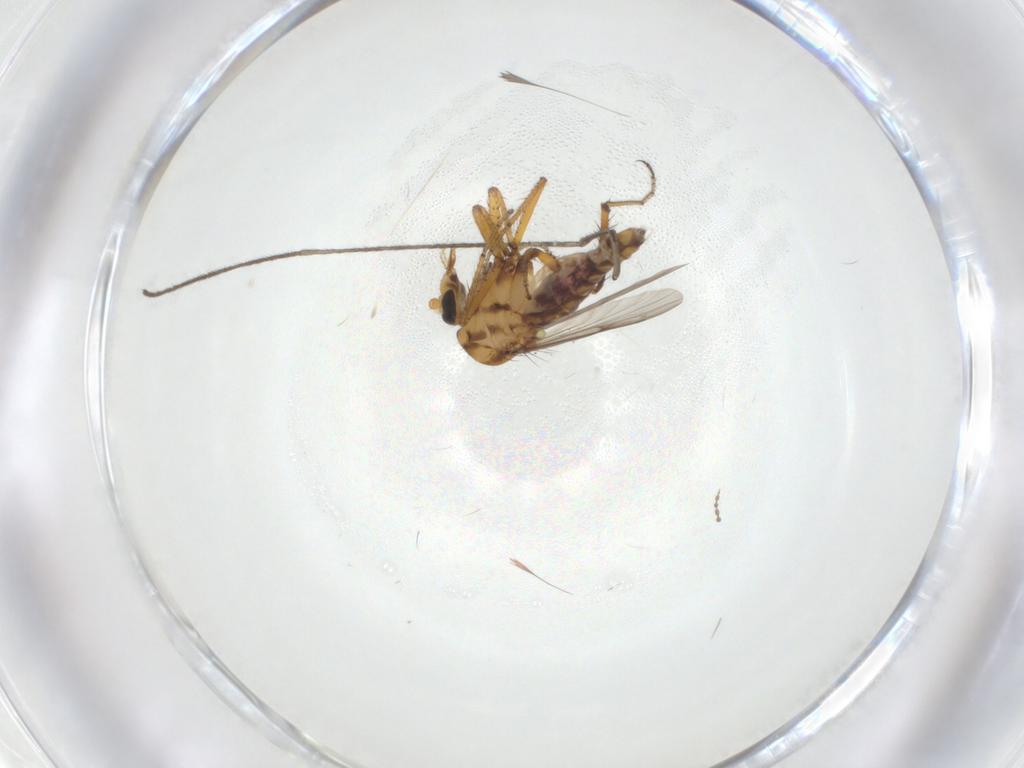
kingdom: Animalia
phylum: Arthropoda
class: Insecta
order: Diptera
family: Ceratopogonidae
